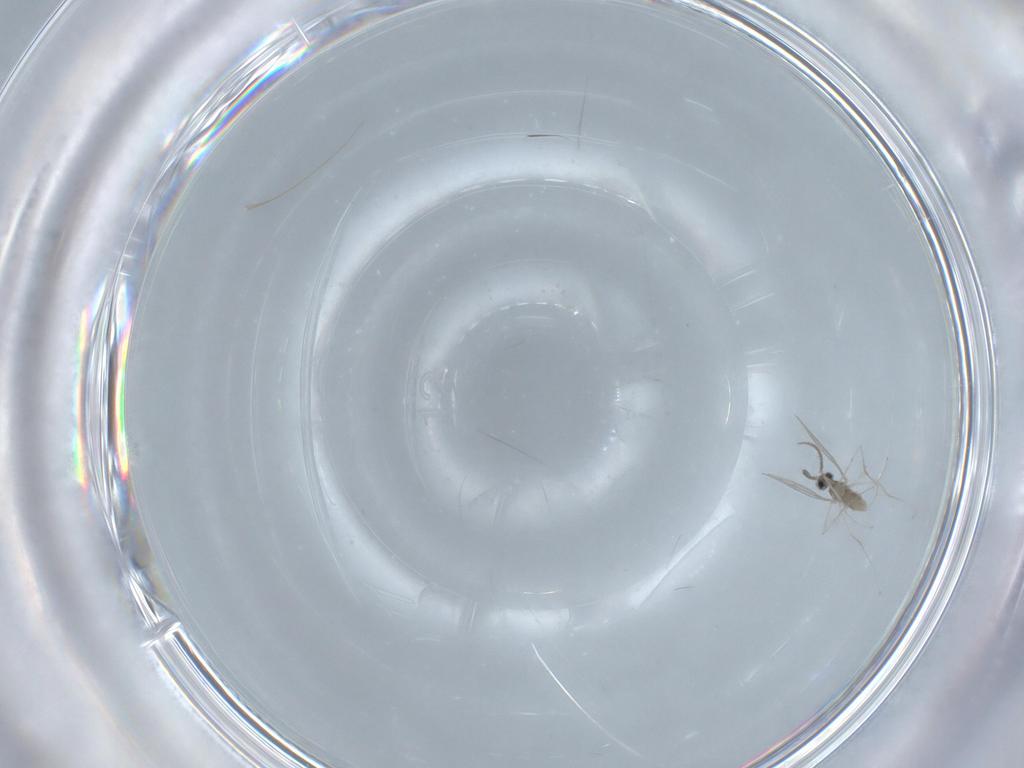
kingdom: Animalia
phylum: Arthropoda
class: Insecta
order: Diptera
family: Cecidomyiidae
